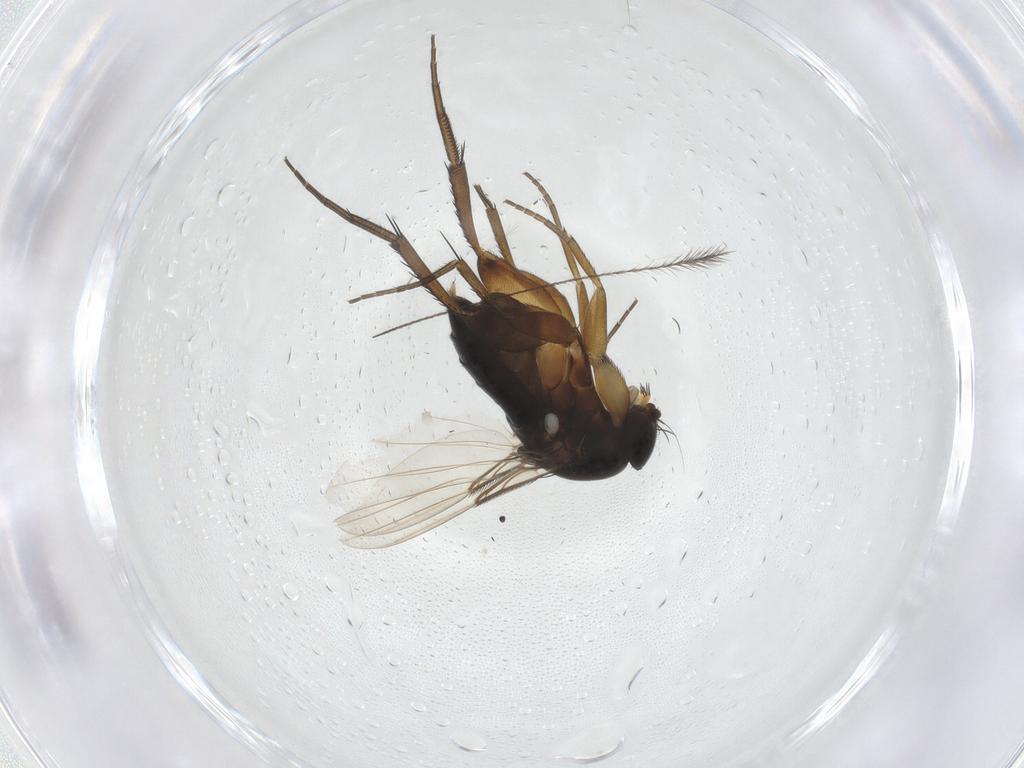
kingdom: Animalia
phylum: Arthropoda
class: Insecta
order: Diptera
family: Phoridae
